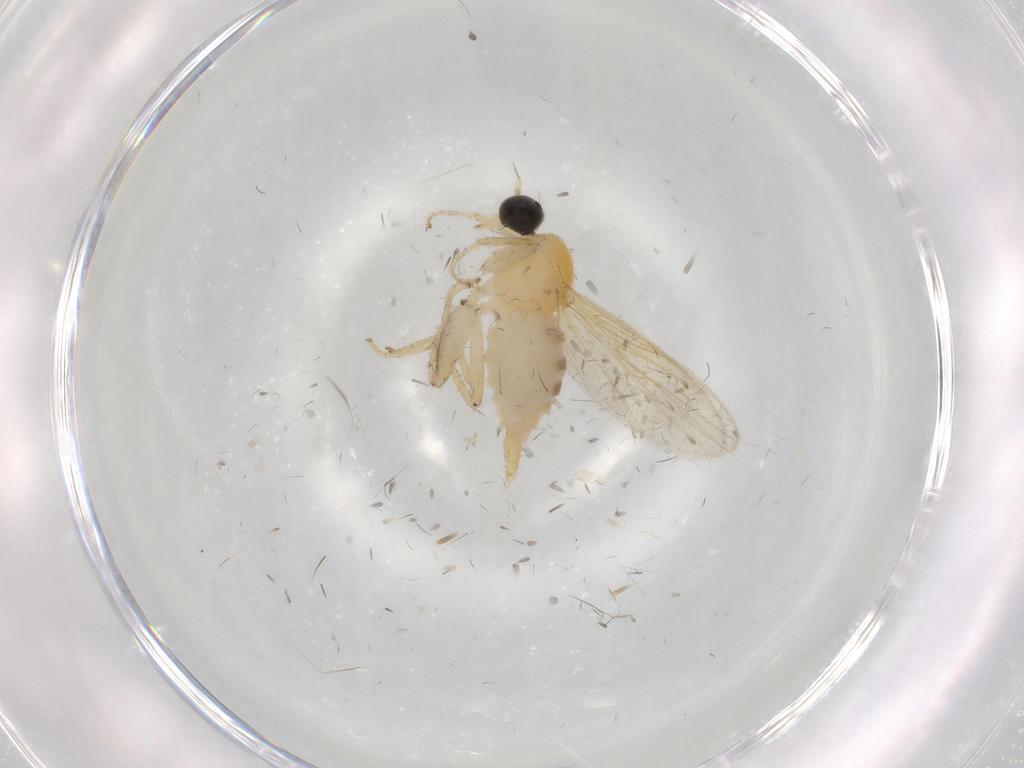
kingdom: Animalia
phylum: Arthropoda
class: Insecta
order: Diptera
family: Hybotidae
